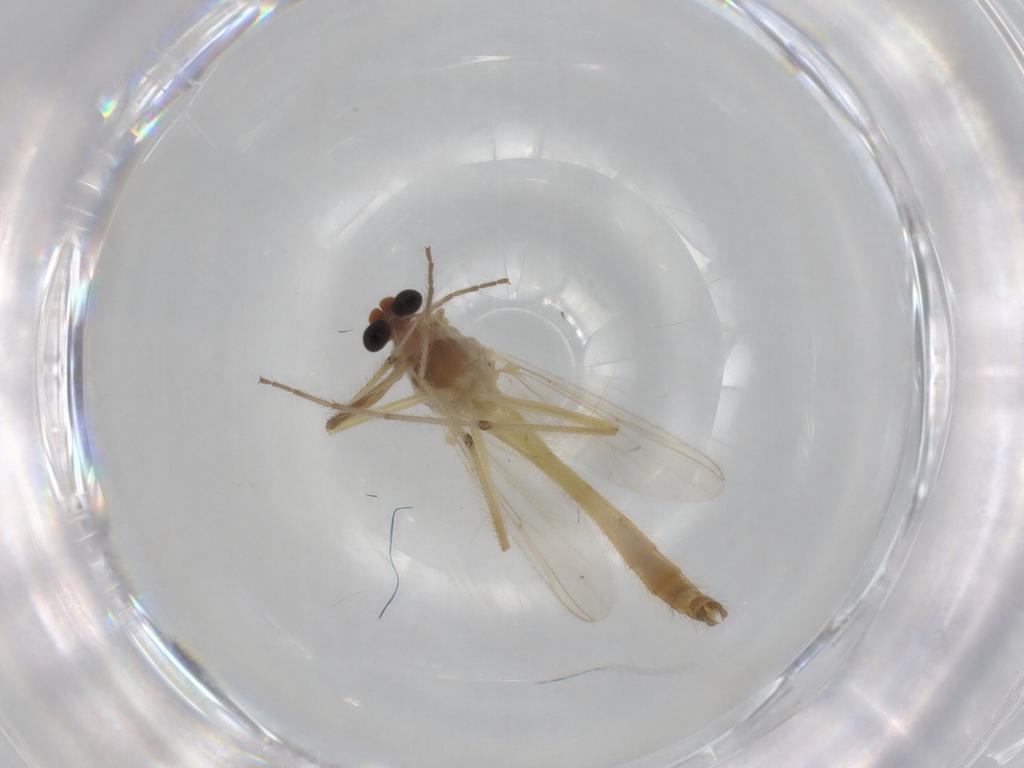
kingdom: Animalia
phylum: Arthropoda
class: Insecta
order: Diptera
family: Chironomidae
